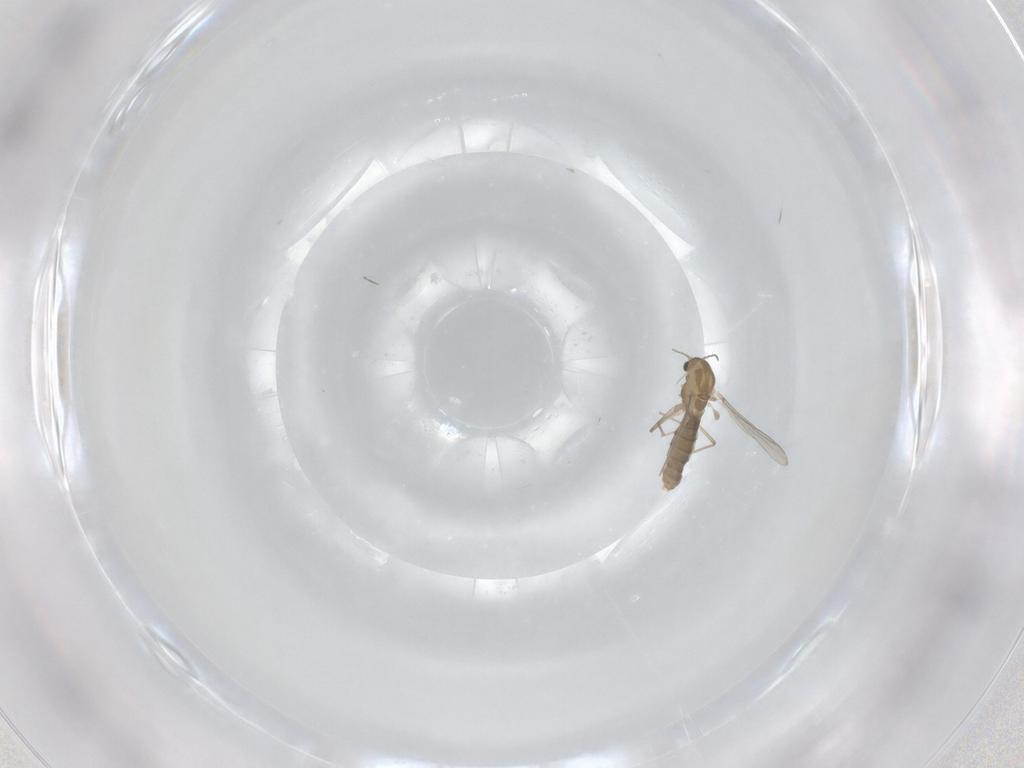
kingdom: Animalia
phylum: Arthropoda
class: Insecta
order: Diptera
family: Chironomidae
